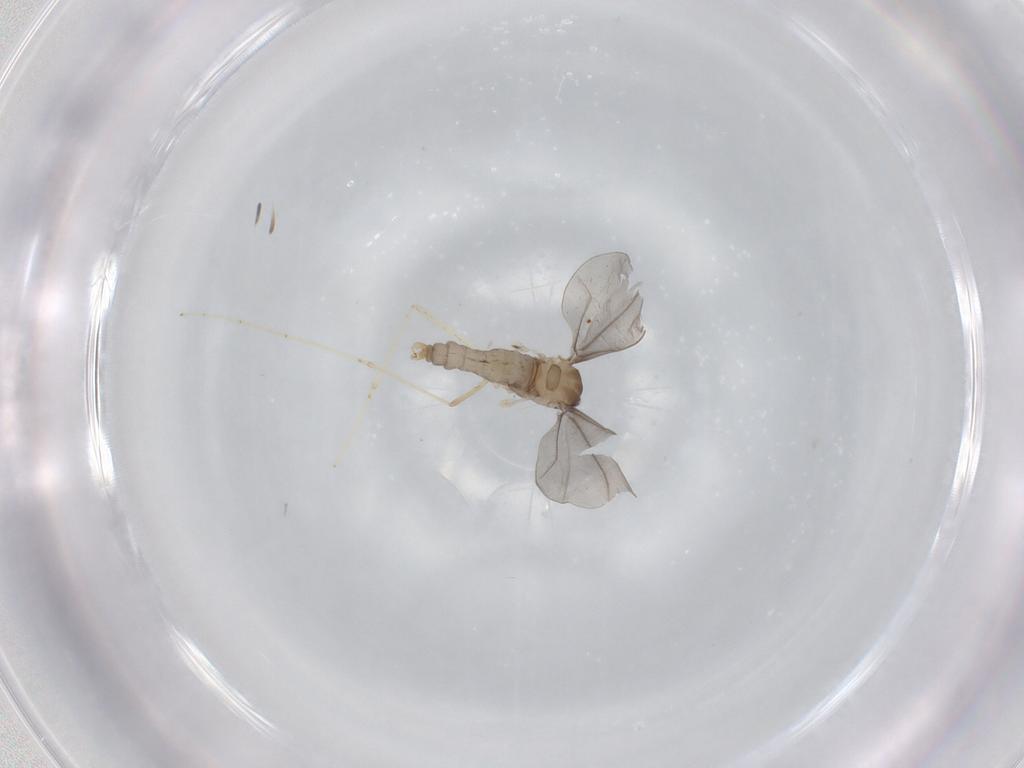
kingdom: Animalia
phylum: Arthropoda
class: Insecta
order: Diptera
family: Cecidomyiidae
